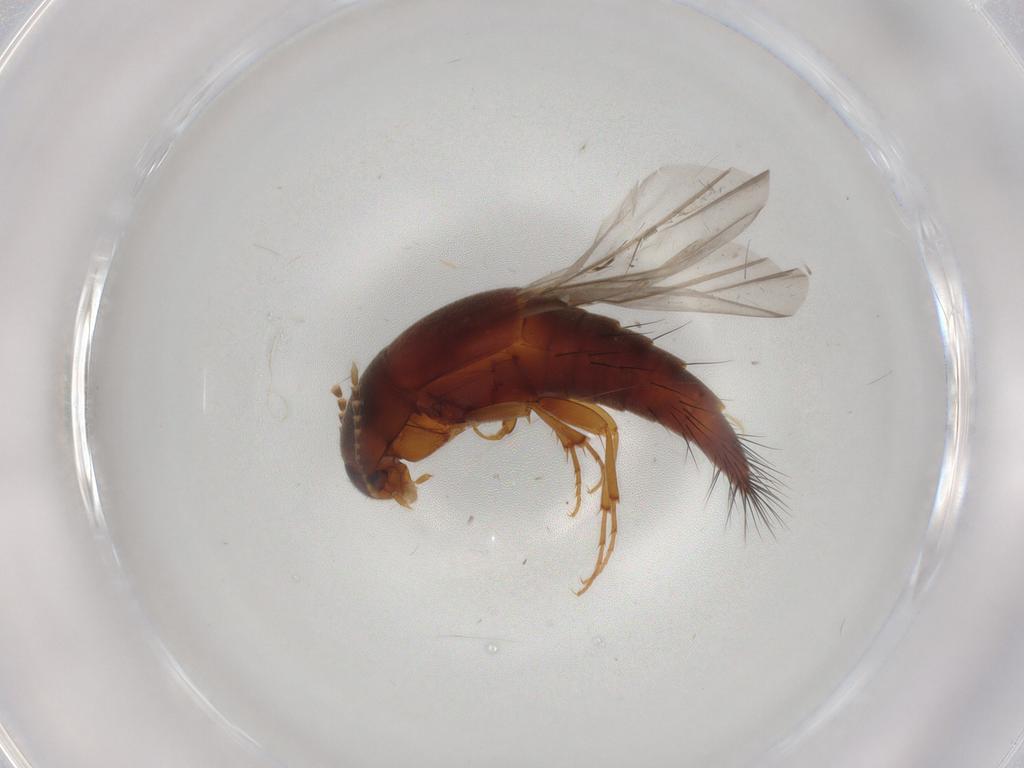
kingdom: Animalia
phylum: Arthropoda
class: Insecta
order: Coleoptera
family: Staphylinidae
